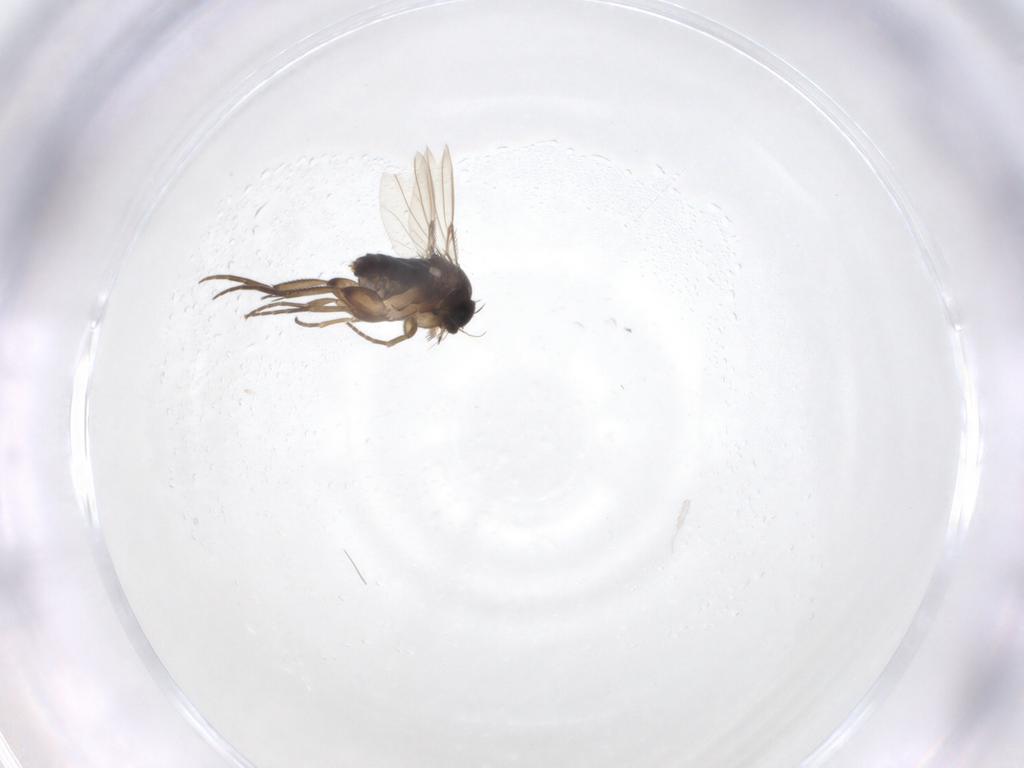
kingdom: Animalia
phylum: Arthropoda
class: Insecta
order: Diptera
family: Phoridae
